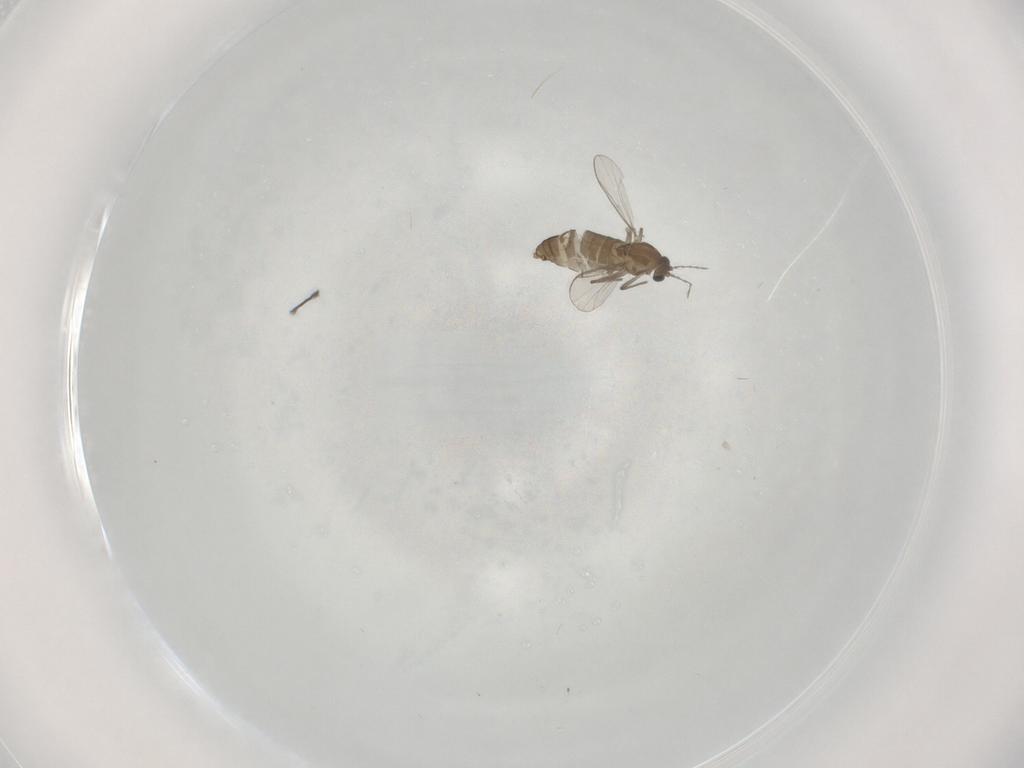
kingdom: Animalia
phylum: Arthropoda
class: Insecta
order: Diptera
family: Chironomidae
